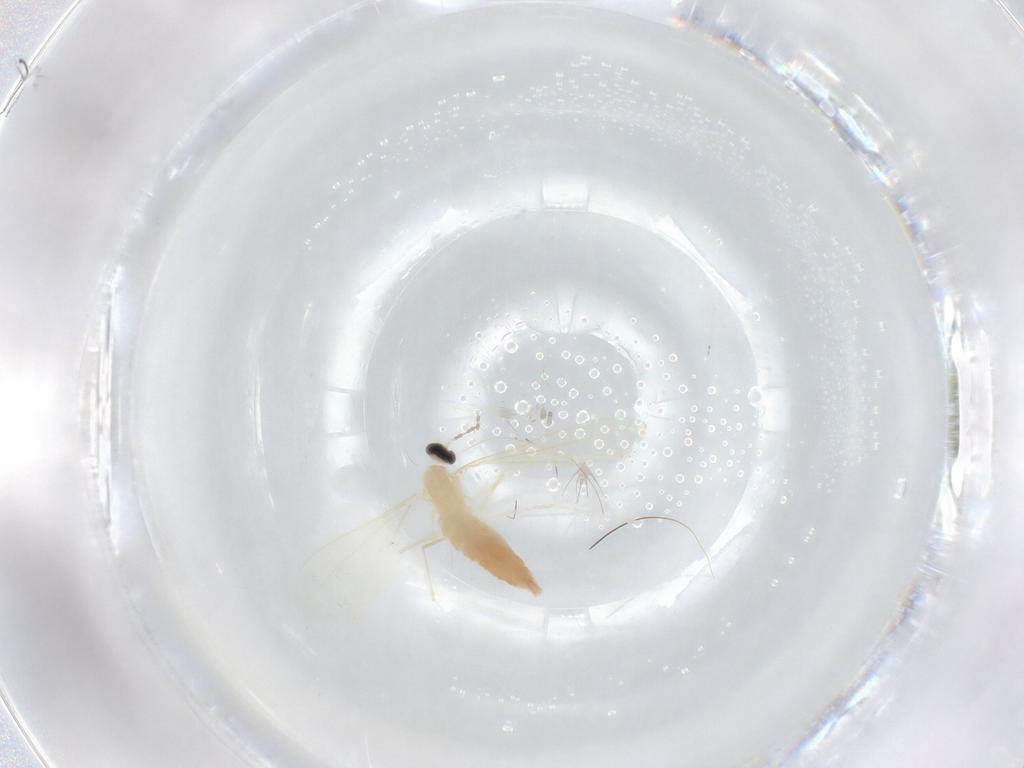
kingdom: Animalia
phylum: Arthropoda
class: Insecta
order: Diptera
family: Cecidomyiidae
